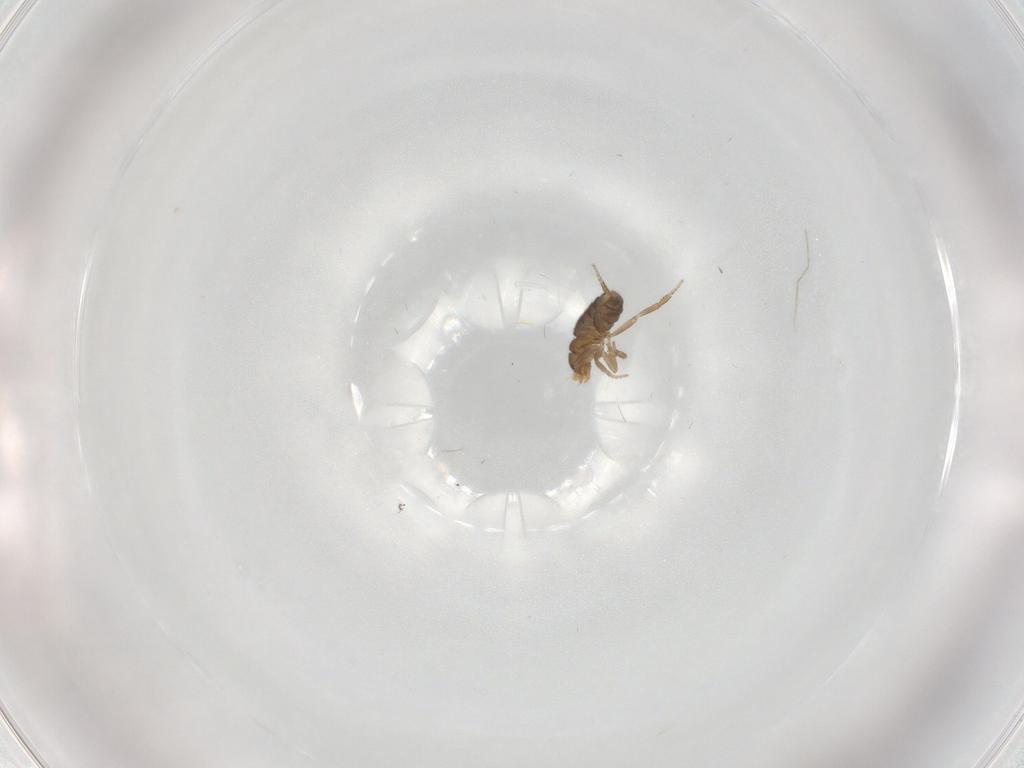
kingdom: Animalia
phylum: Arthropoda
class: Insecta
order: Diptera
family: Phoridae
